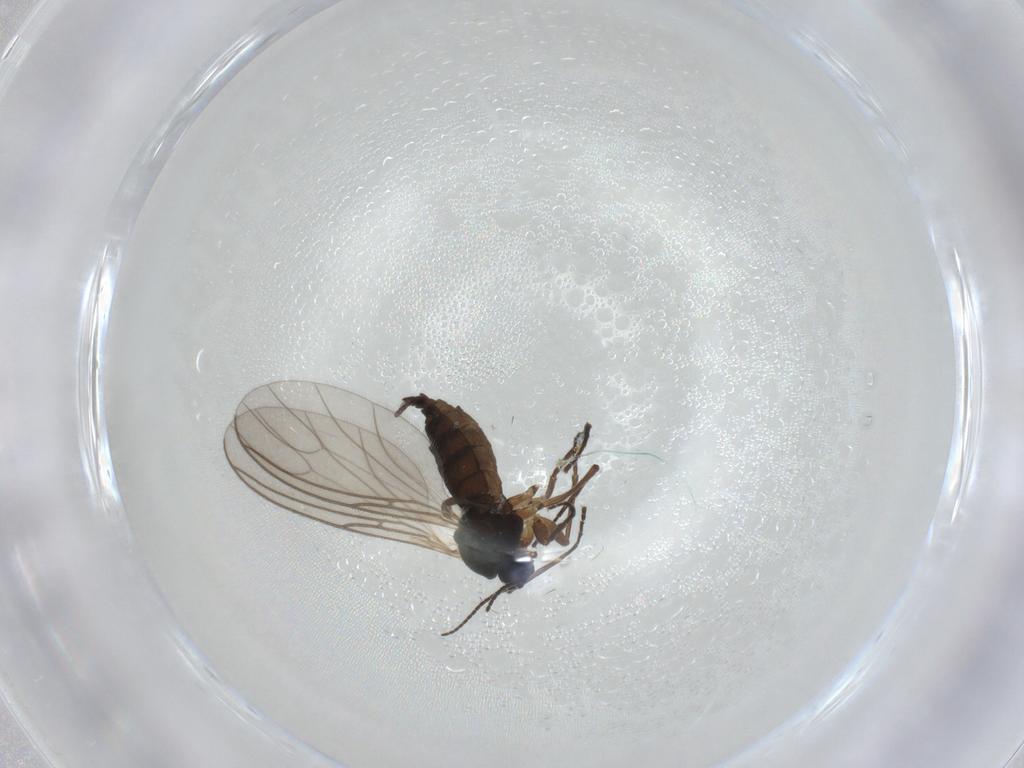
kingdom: Animalia
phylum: Arthropoda
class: Insecta
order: Diptera
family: Sciaridae
